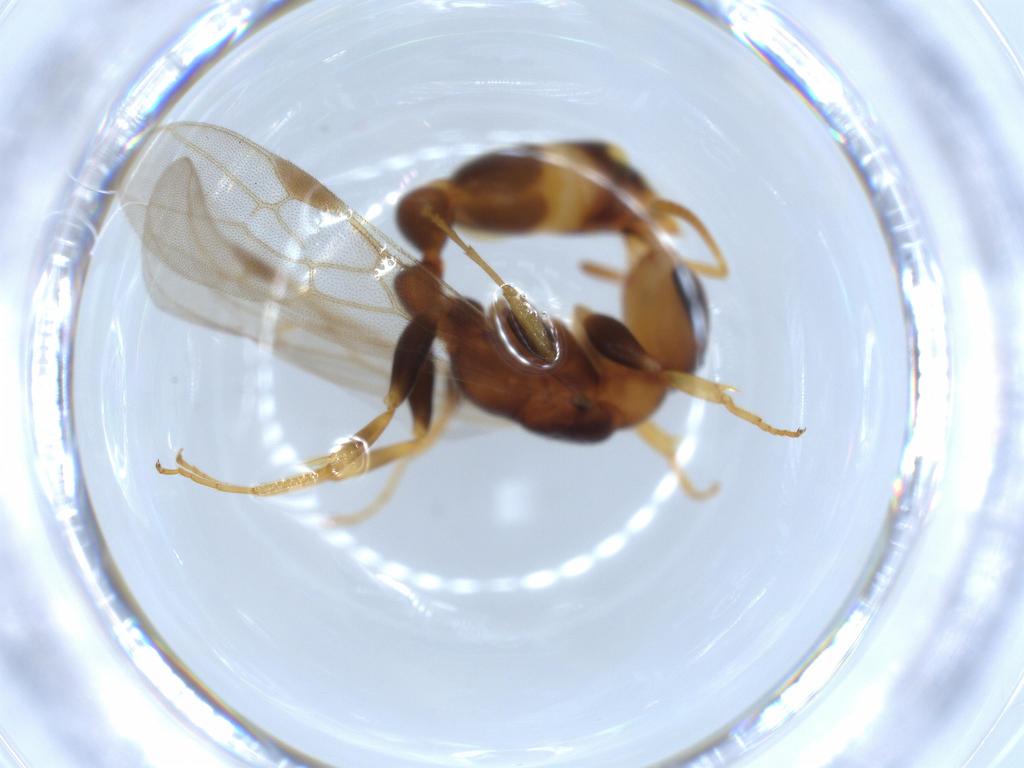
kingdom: Animalia
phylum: Arthropoda
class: Insecta
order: Hymenoptera
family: Formicidae
